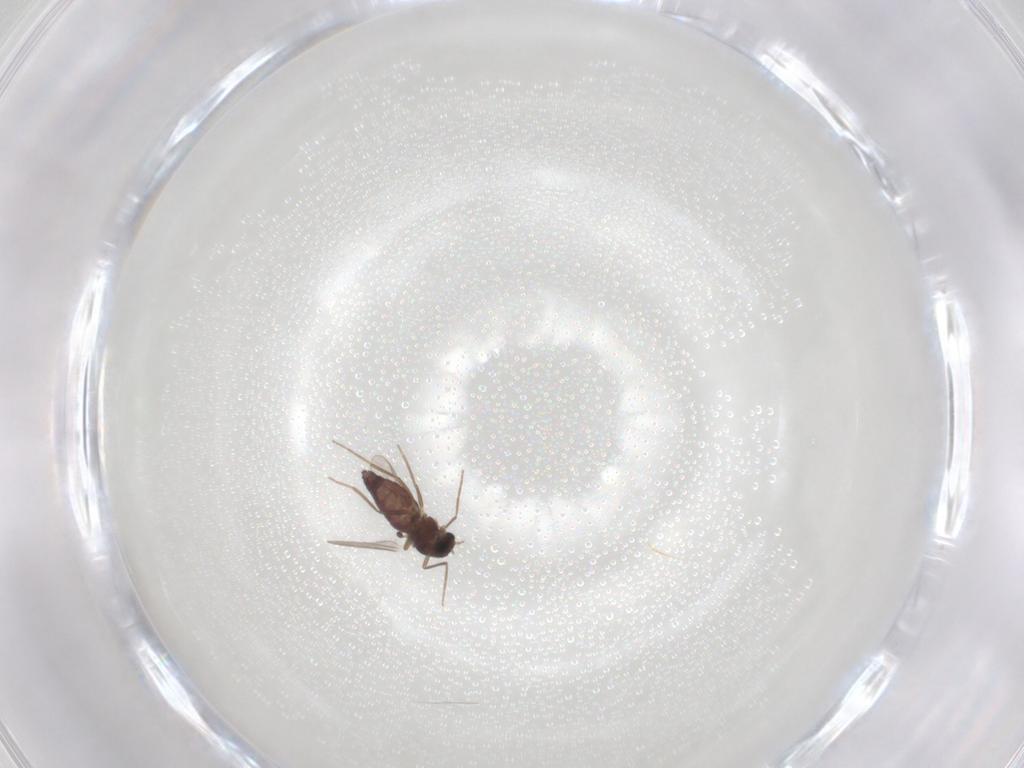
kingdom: Animalia
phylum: Arthropoda
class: Insecta
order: Diptera
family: Chironomidae
